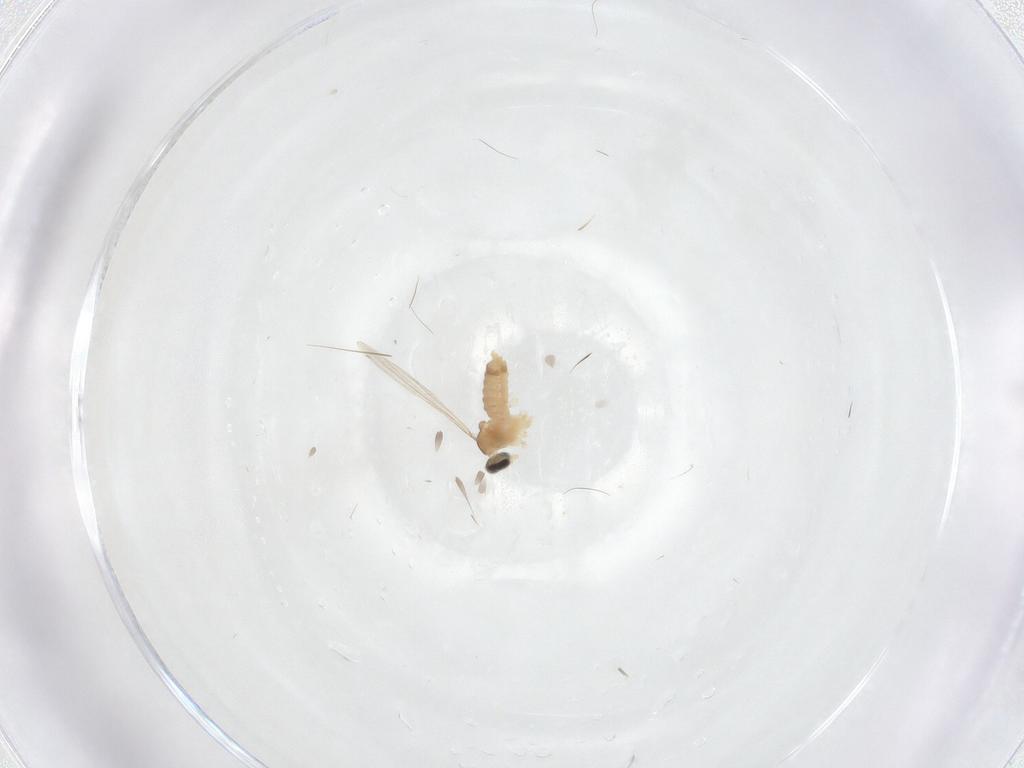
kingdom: Animalia
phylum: Arthropoda
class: Insecta
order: Diptera
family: Cecidomyiidae
